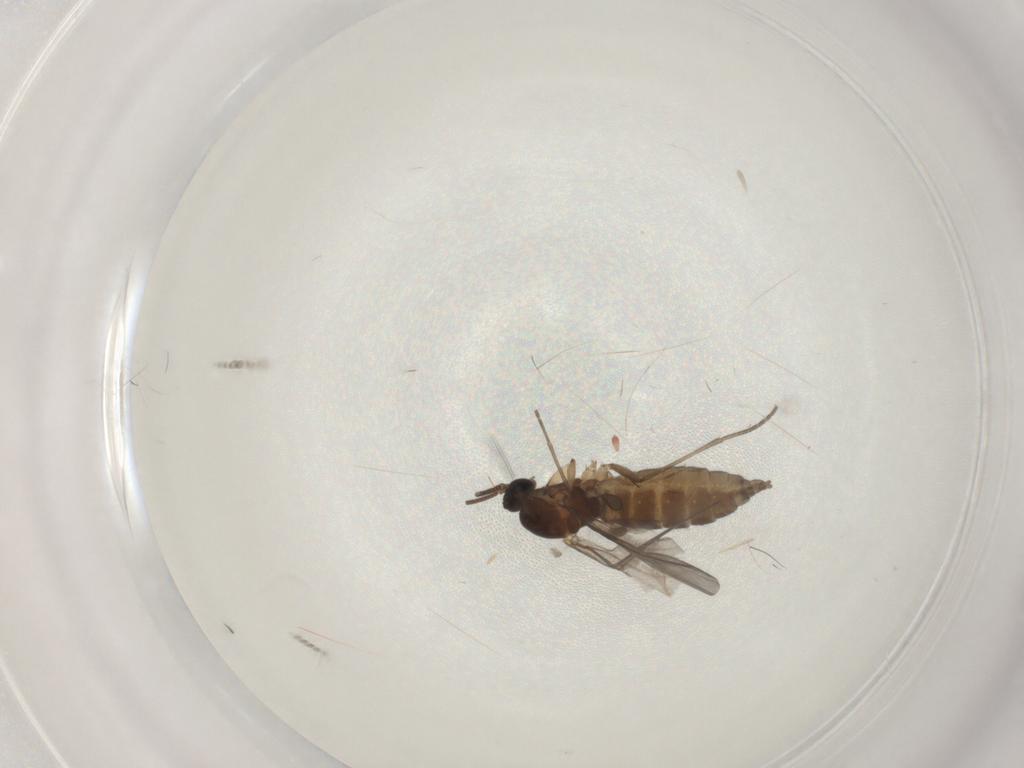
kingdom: Animalia
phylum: Arthropoda
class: Insecta
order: Diptera
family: Sciaridae
